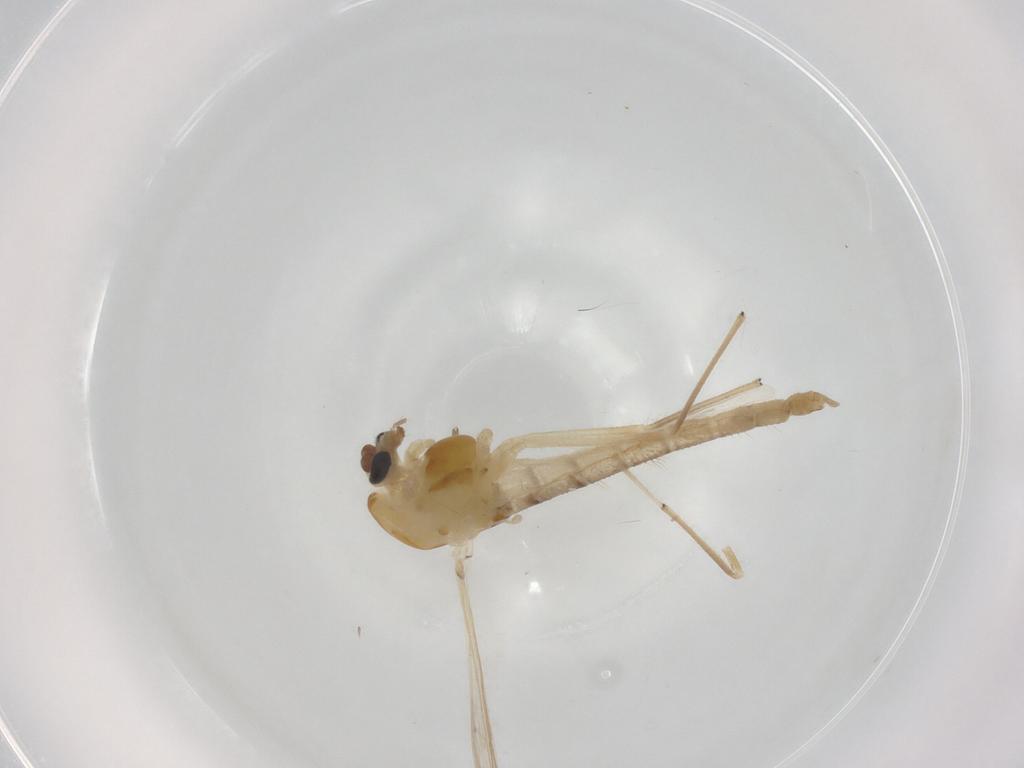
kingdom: Animalia
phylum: Arthropoda
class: Insecta
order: Diptera
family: Chironomidae
